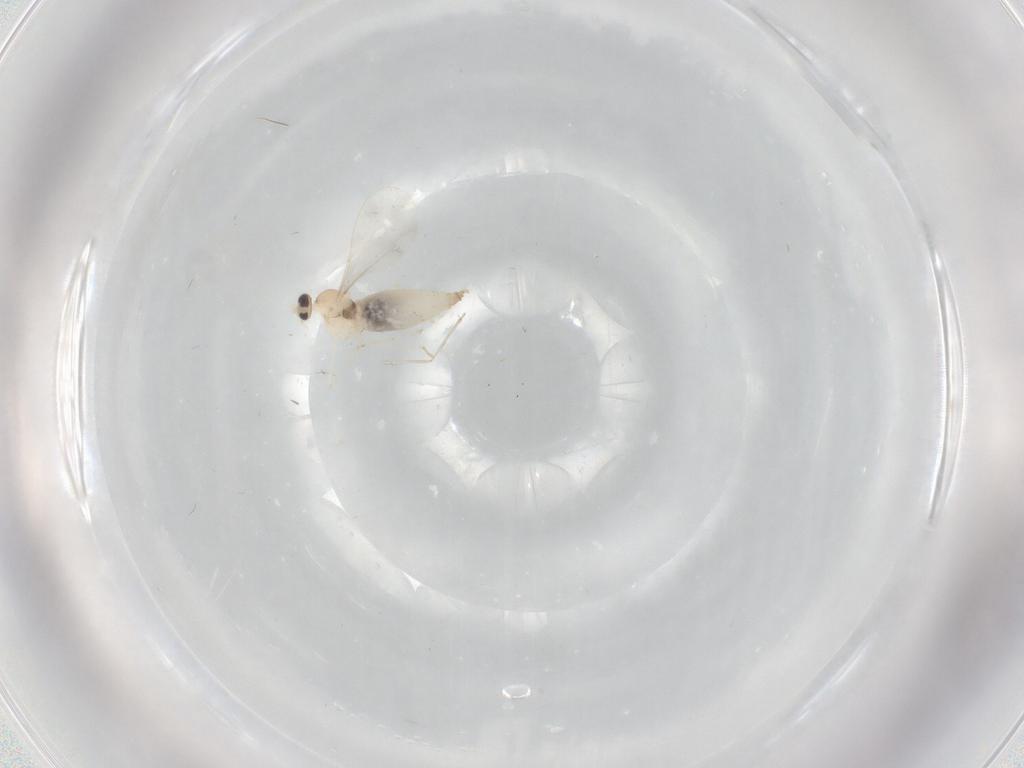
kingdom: Animalia
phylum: Arthropoda
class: Insecta
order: Diptera
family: Cecidomyiidae
